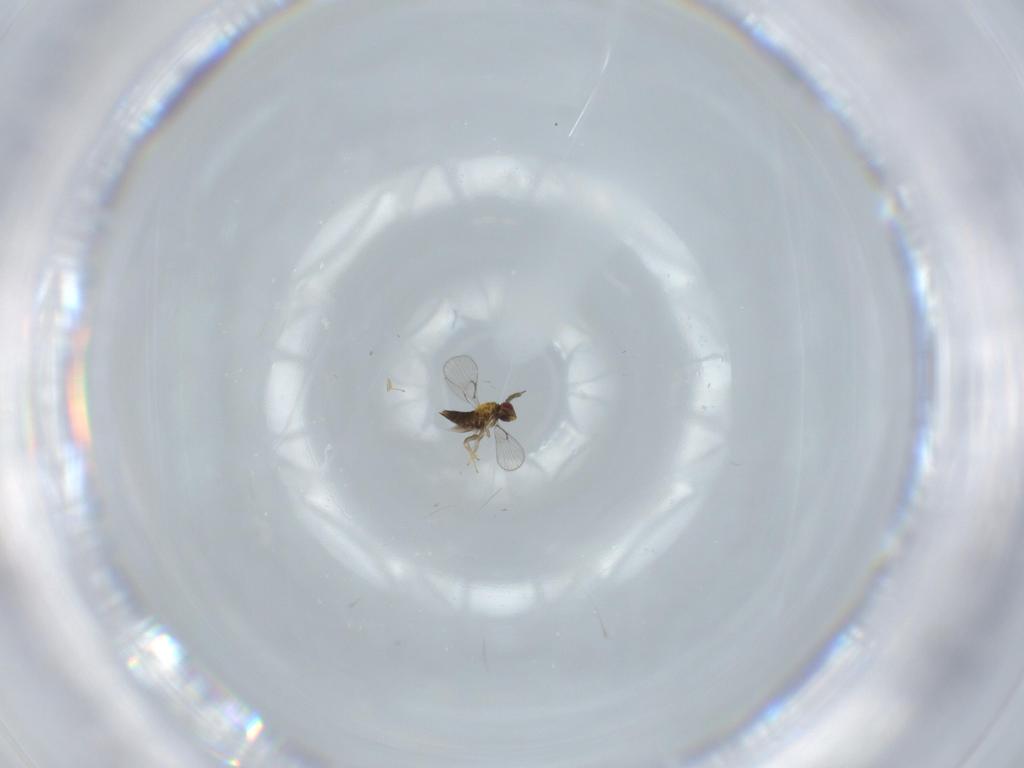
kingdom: Animalia
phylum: Arthropoda
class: Insecta
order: Hymenoptera
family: Trichogrammatidae
